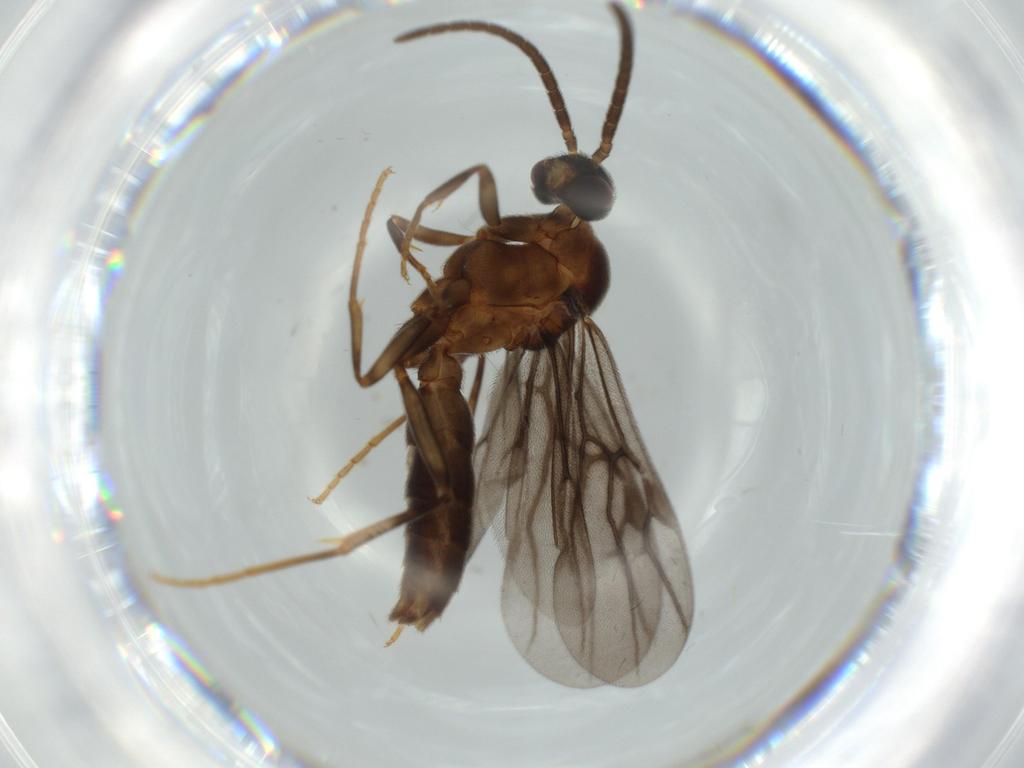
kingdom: Animalia
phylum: Arthropoda
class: Insecta
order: Hymenoptera
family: Formicidae
